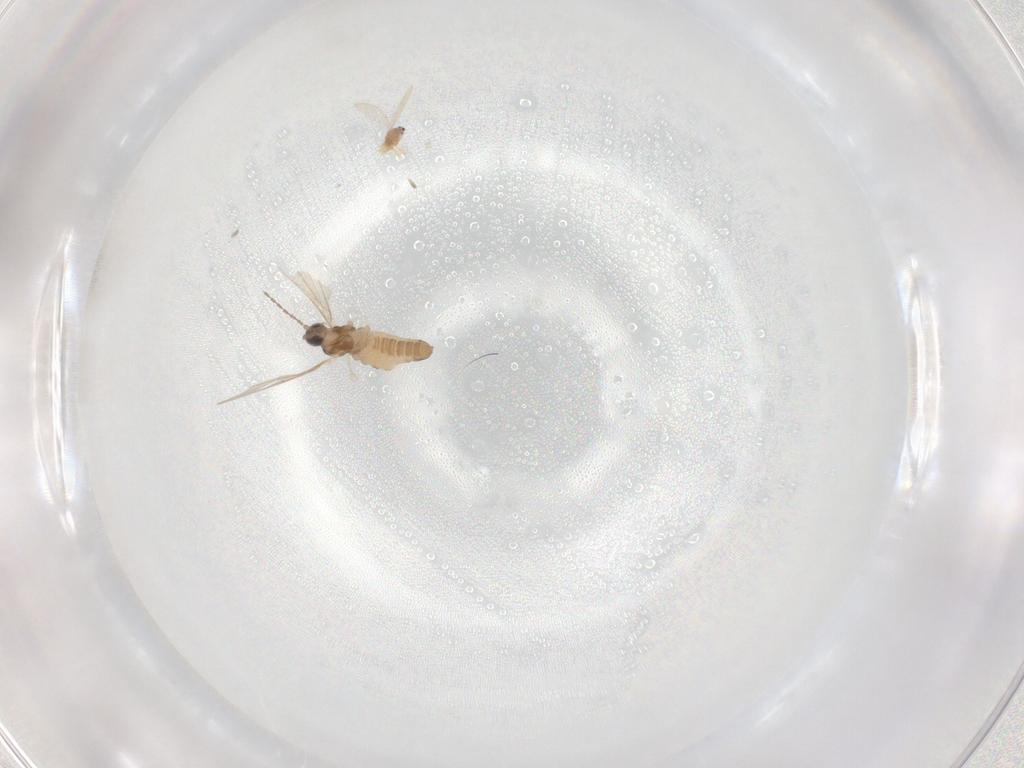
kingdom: Animalia
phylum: Arthropoda
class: Insecta
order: Diptera
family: Cecidomyiidae
